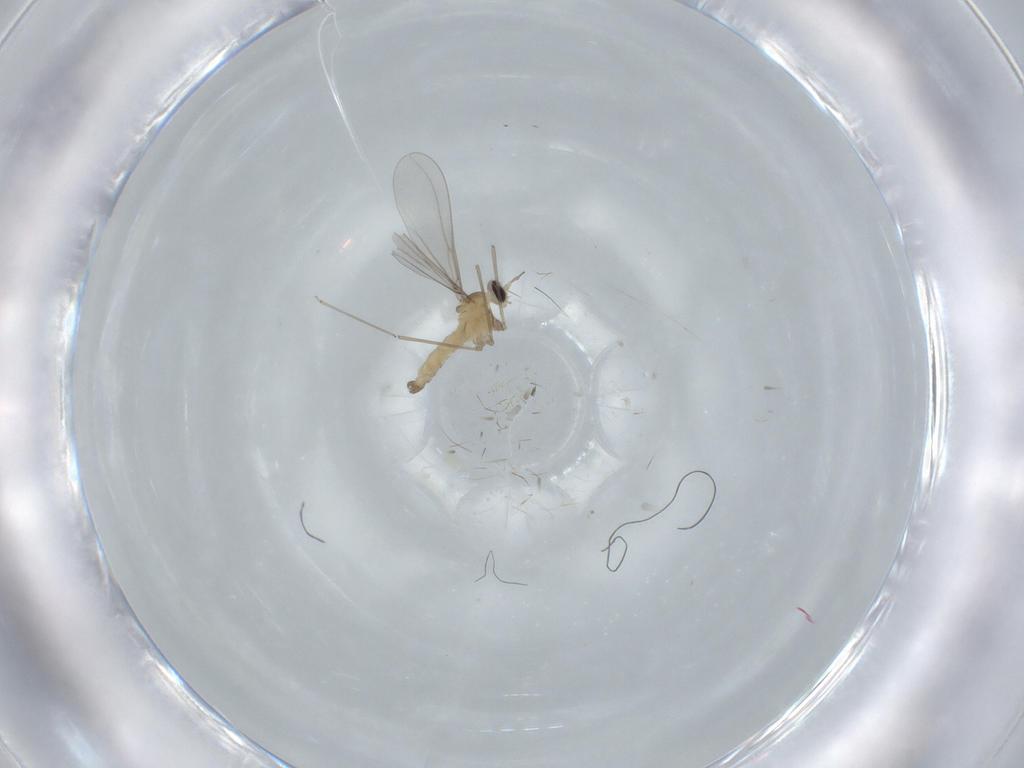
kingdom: Animalia
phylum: Arthropoda
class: Insecta
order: Diptera
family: Cecidomyiidae
